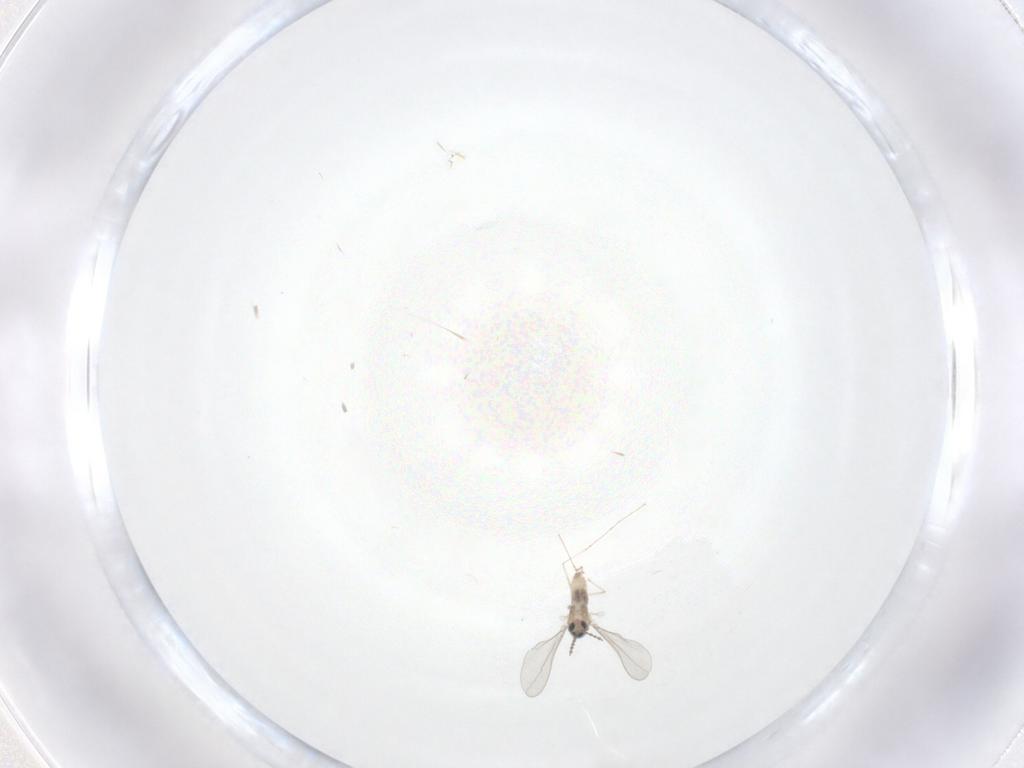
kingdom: Animalia
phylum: Arthropoda
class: Insecta
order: Diptera
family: Cecidomyiidae
